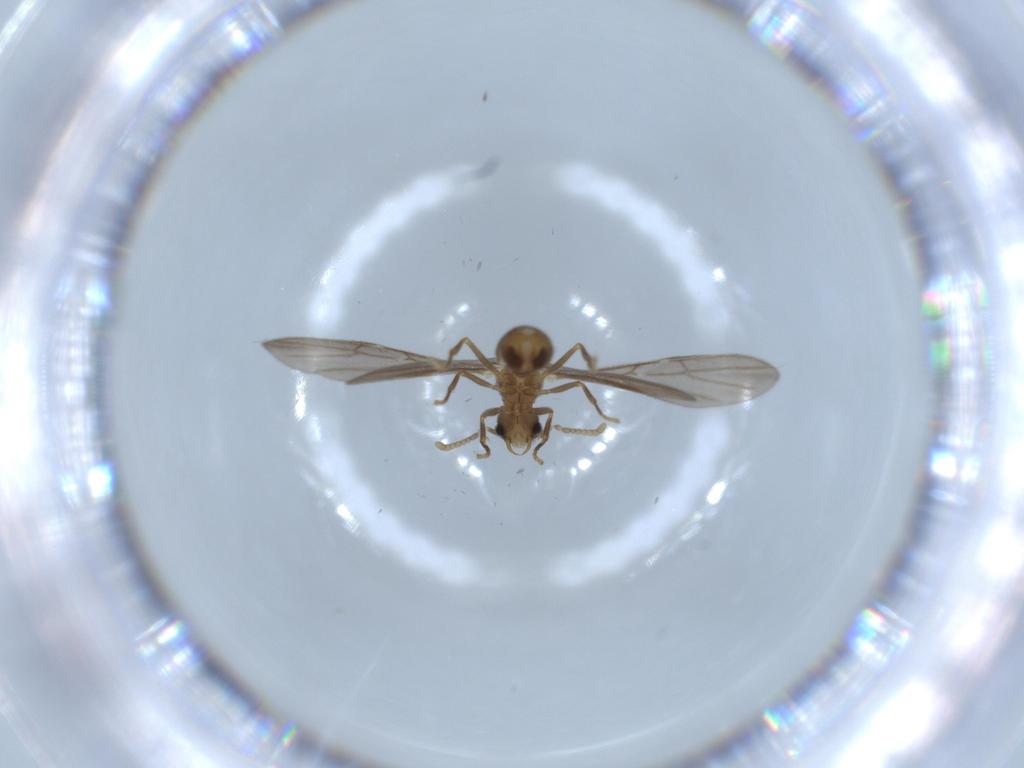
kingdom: Animalia
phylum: Arthropoda
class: Insecta
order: Hymenoptera
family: Formicidae
